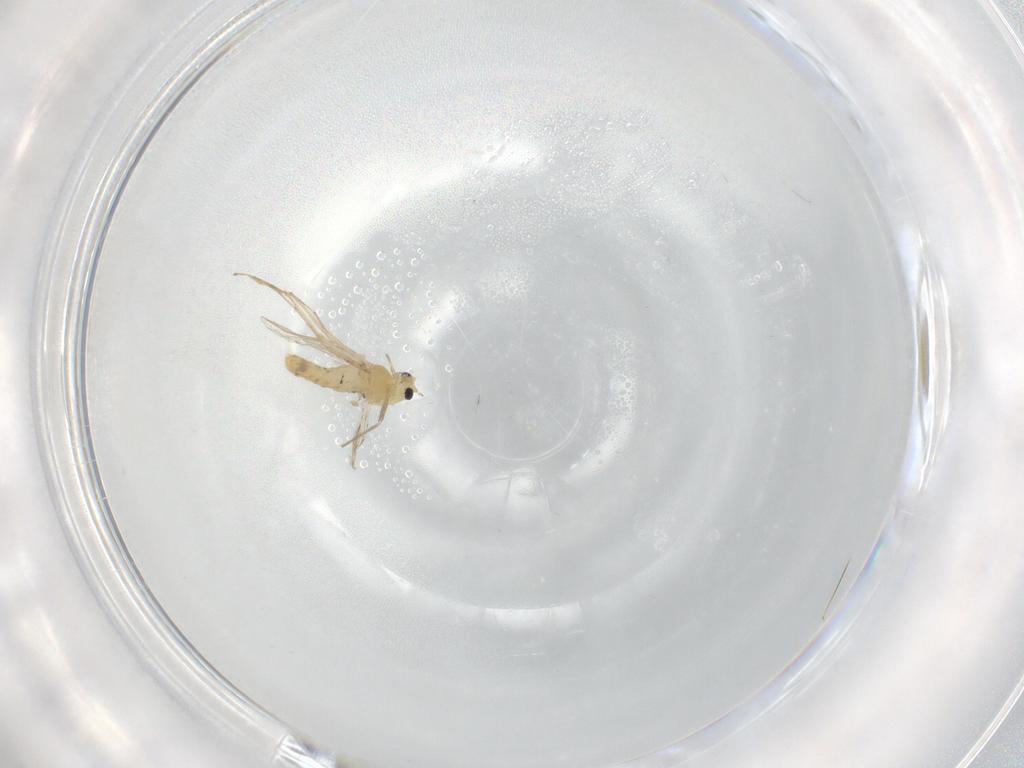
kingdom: Animalia
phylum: Arthropoda
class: Insecta
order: Diptera
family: Chironomidae
